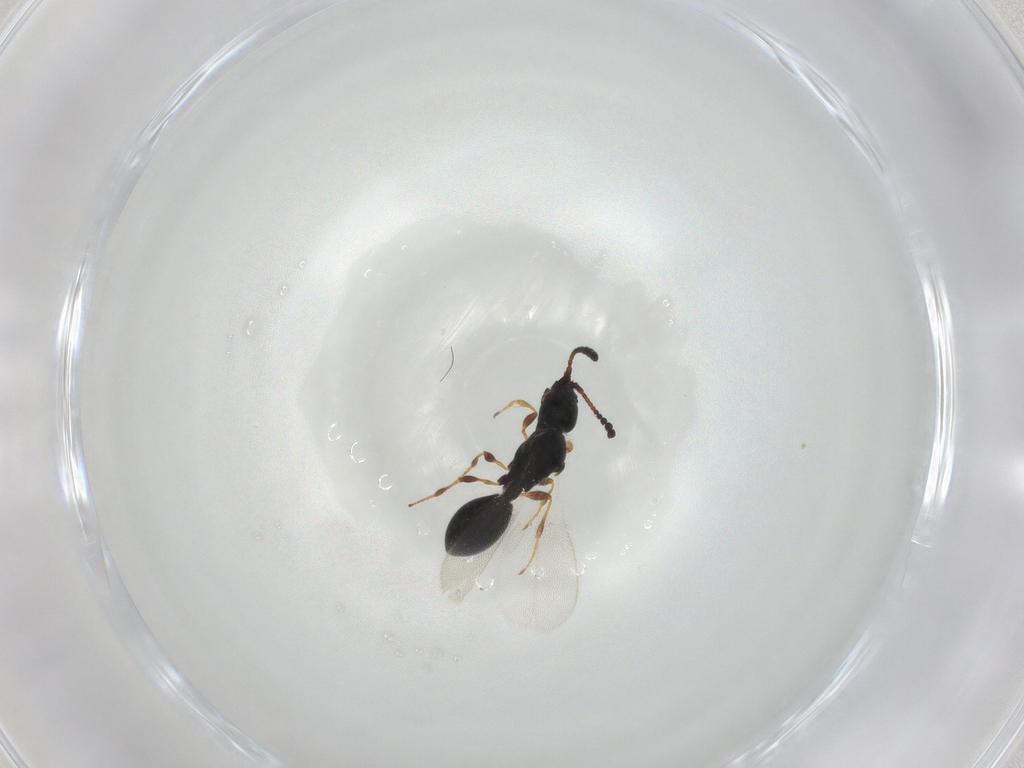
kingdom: Animalia
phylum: Arthropoda
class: Insecta
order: Hymenoptera
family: Diapriidae
